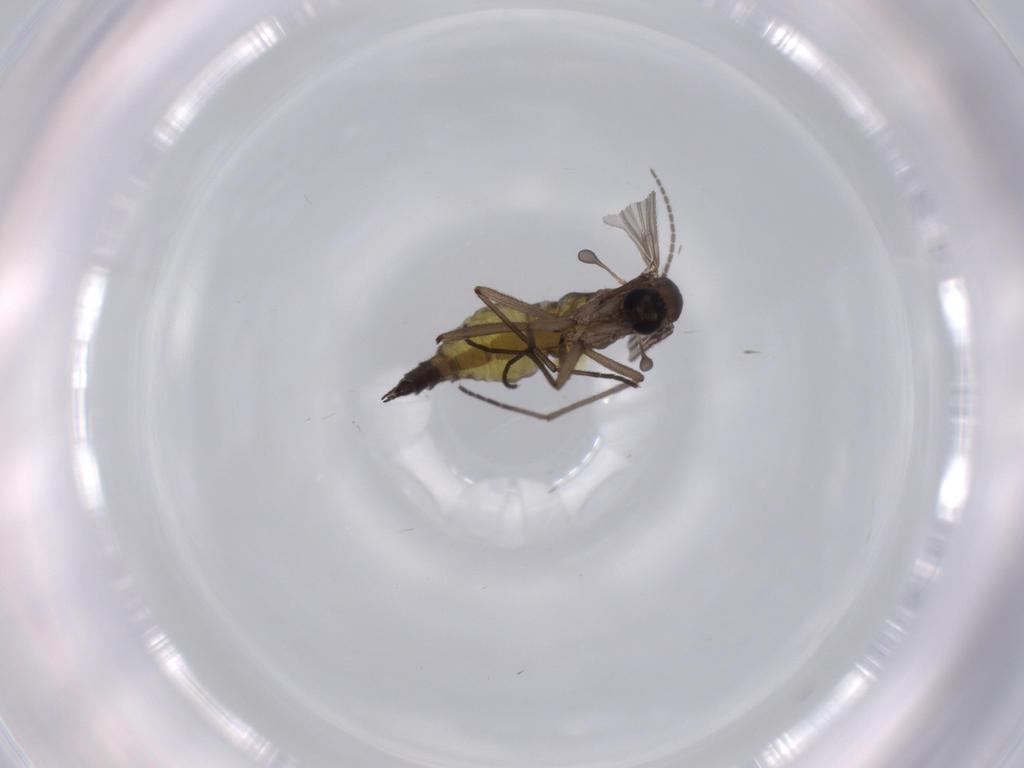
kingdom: Animalia
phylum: Arthropoda
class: Insecta
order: Diptera
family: Sciaridae
